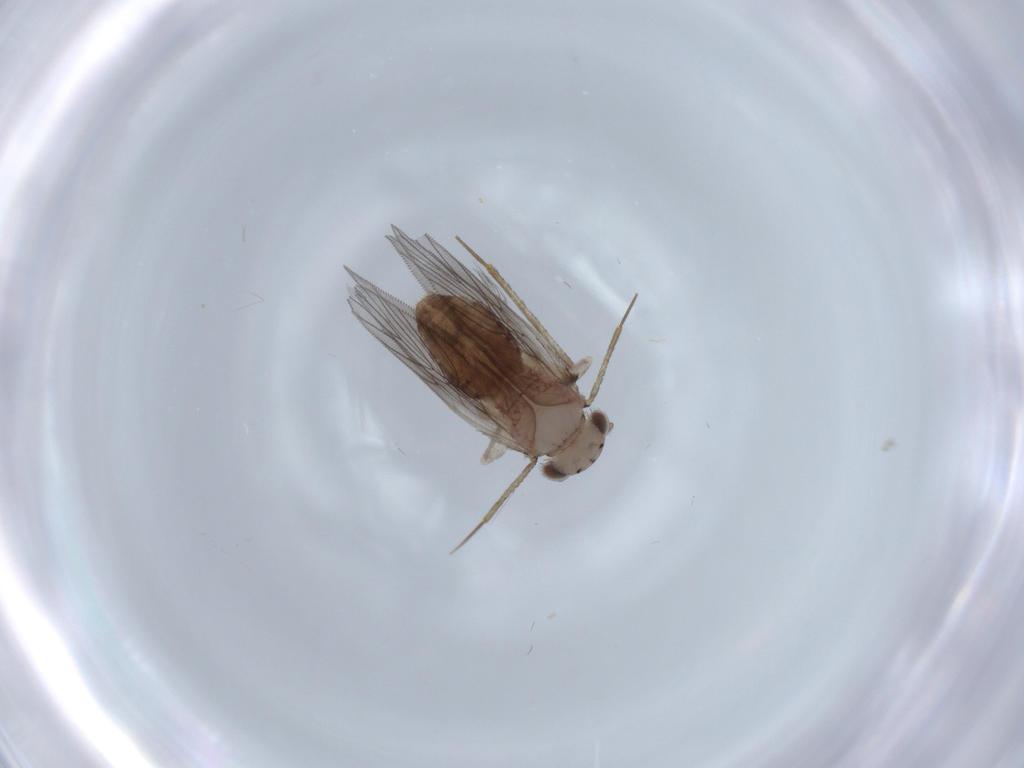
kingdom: Animalia
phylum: Arthropoda
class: Insecta
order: Psocodea
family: Lepidopsocidae
